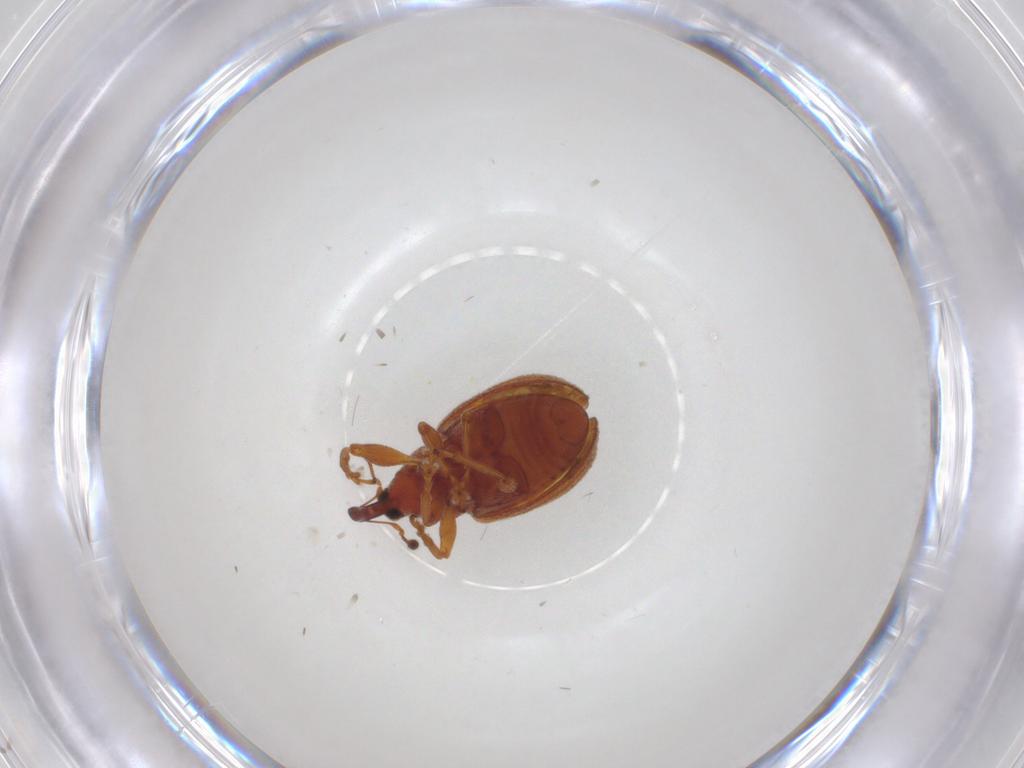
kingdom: Animalia
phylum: Arthropoda
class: Insecta
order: Coleoptera
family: Curculionidae
